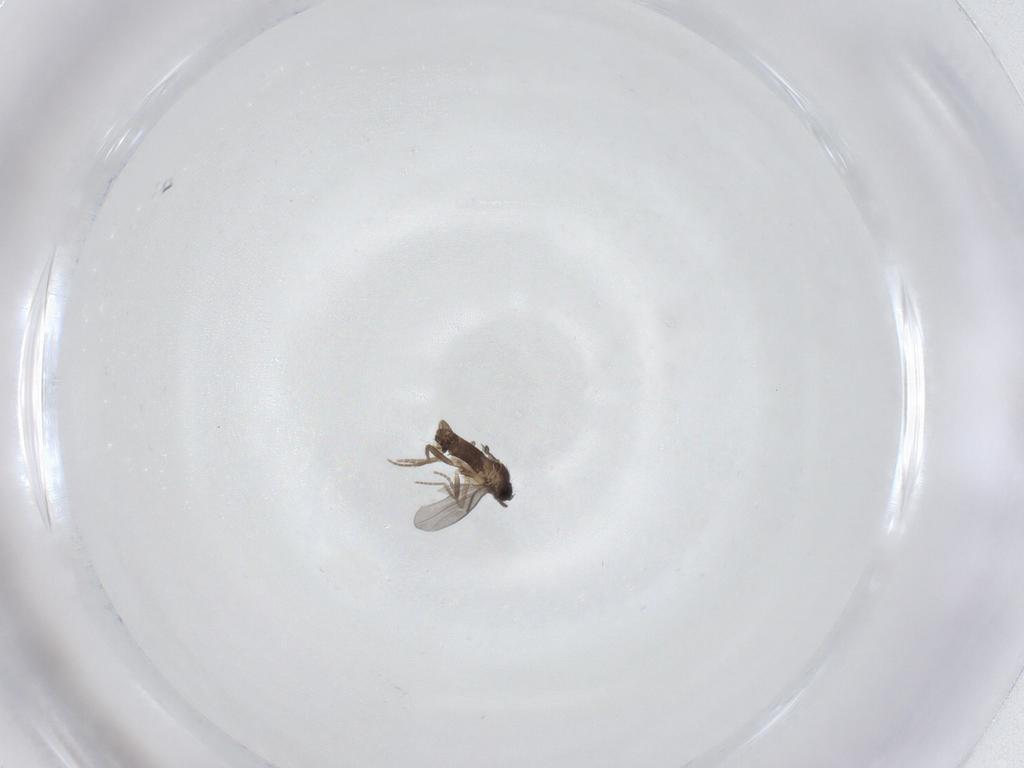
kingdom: Animalia
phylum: Arthropoda
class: Insecta
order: Diptera
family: Phoridae
